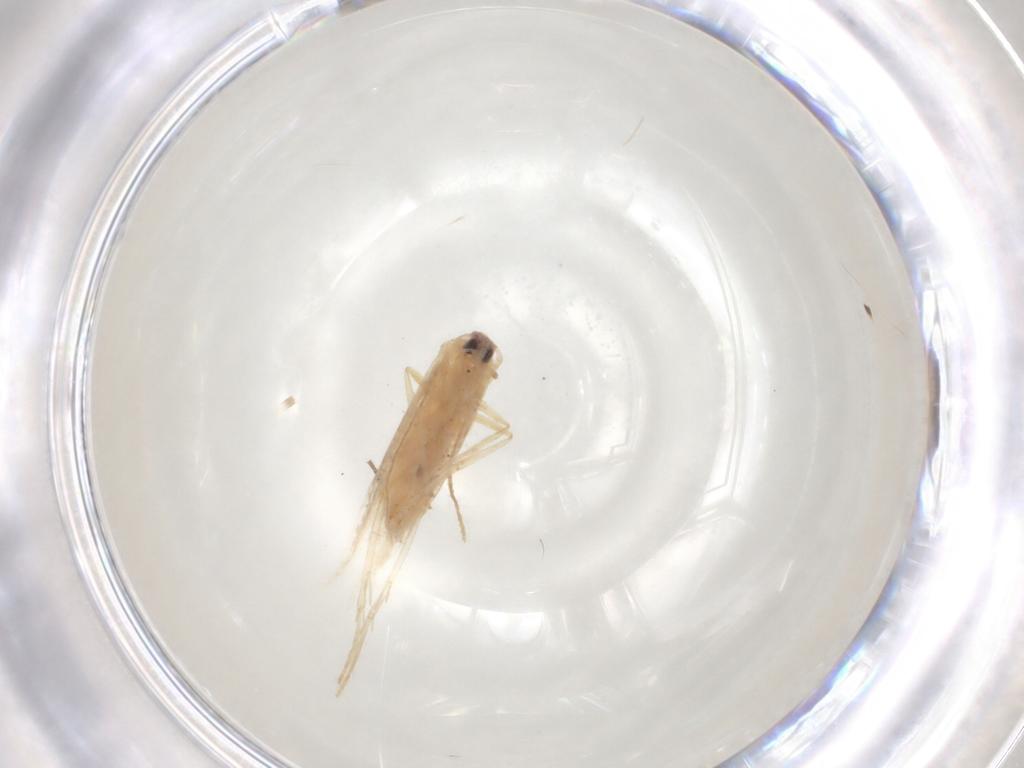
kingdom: Animalia
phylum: Arthropoda
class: Insecta
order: Lepidoptera
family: Coleophoridae
